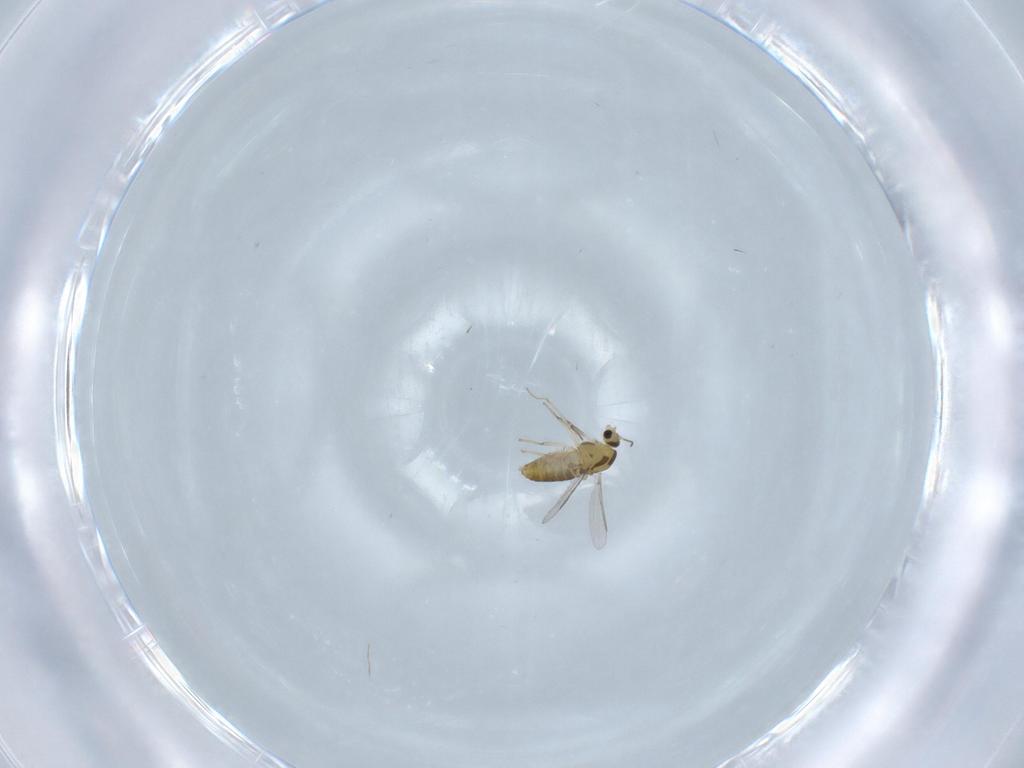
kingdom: Animalia
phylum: Arthropoda
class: Insecta
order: Diptera
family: Chironomidae
